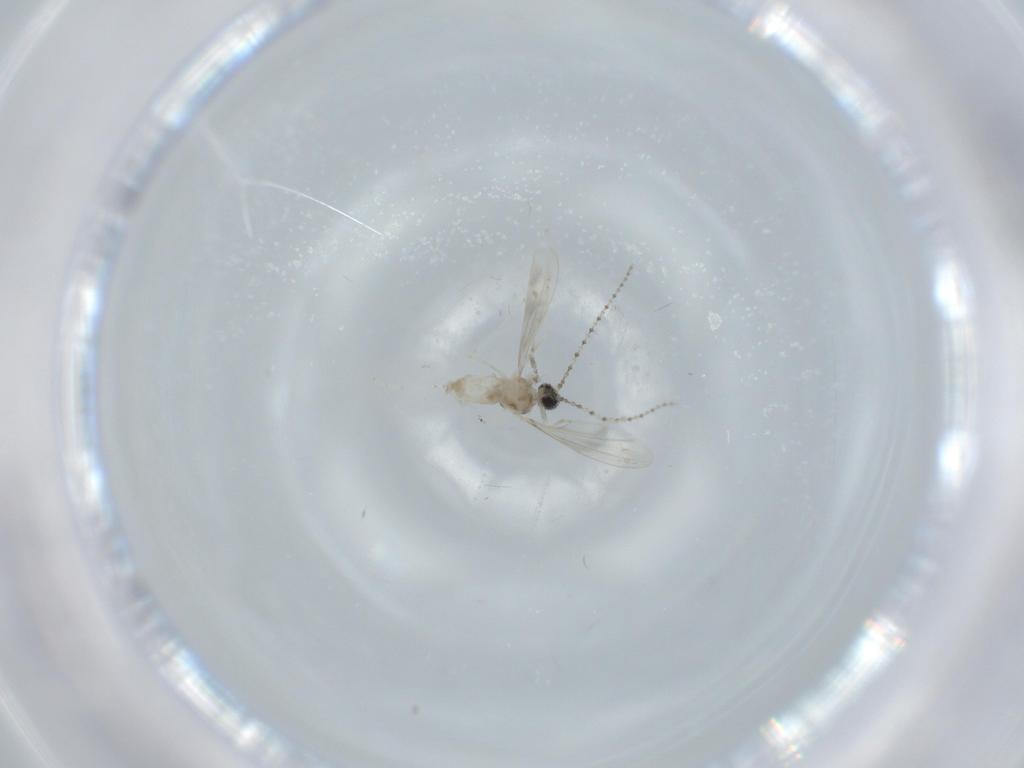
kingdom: Animalia
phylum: Arthropoda
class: Insecta
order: Diptera
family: Cecidomyiidae
